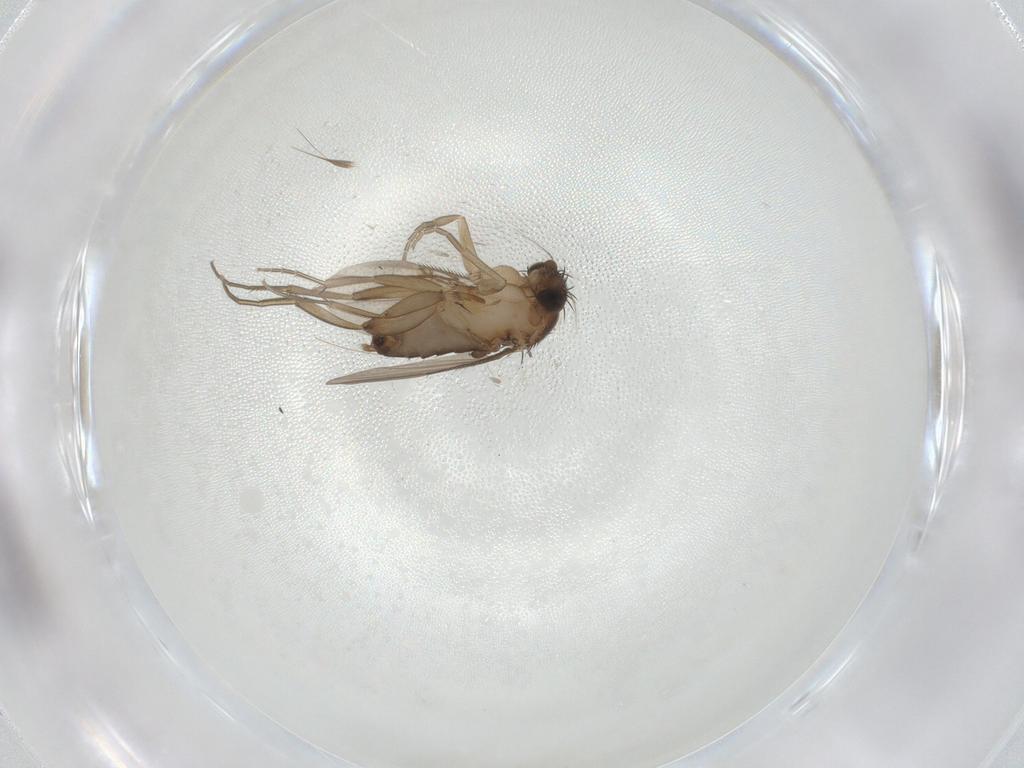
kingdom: Animalia
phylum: Arthropoda
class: Insecta
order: Diptera
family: Phoridae
